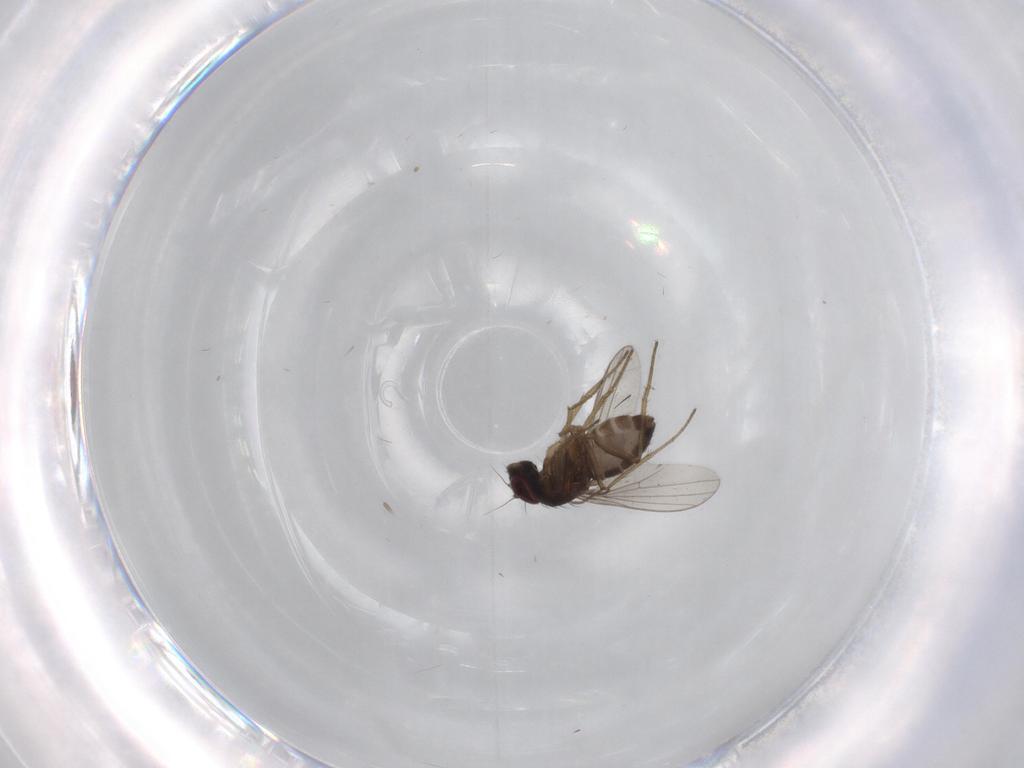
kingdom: Animalia
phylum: Arthropoda
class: Insecta
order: Diptera
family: Dolichopodidae
